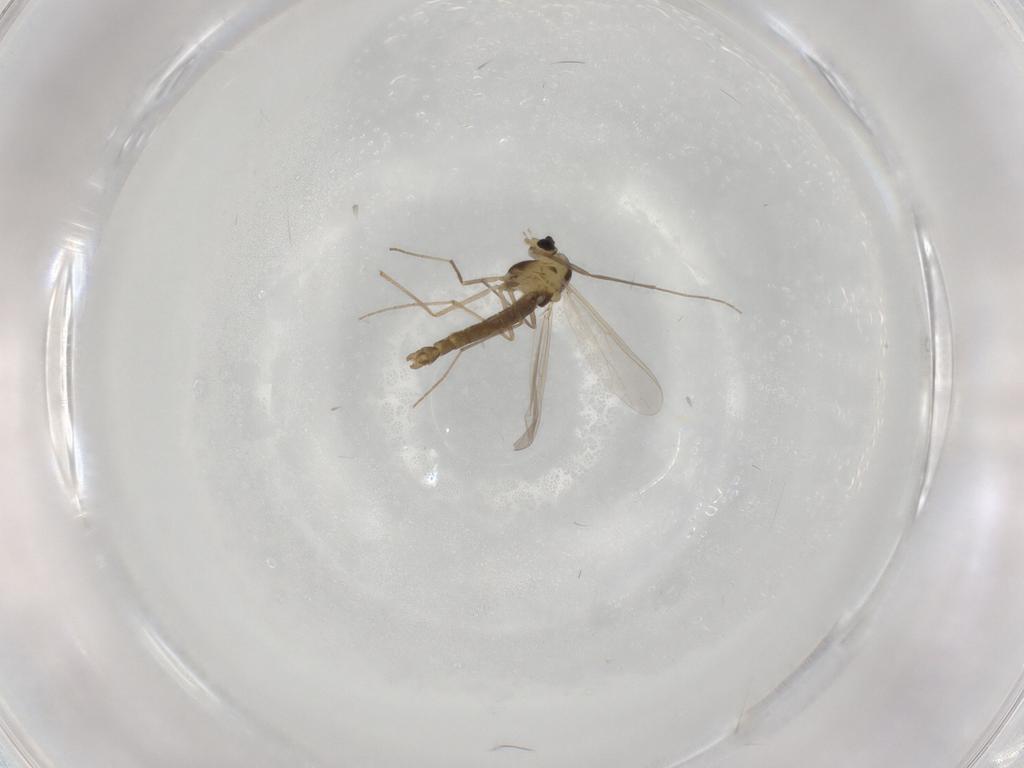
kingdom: Animalia
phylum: Arthropoda
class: Insecta
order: Diptera
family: Chironomidae
